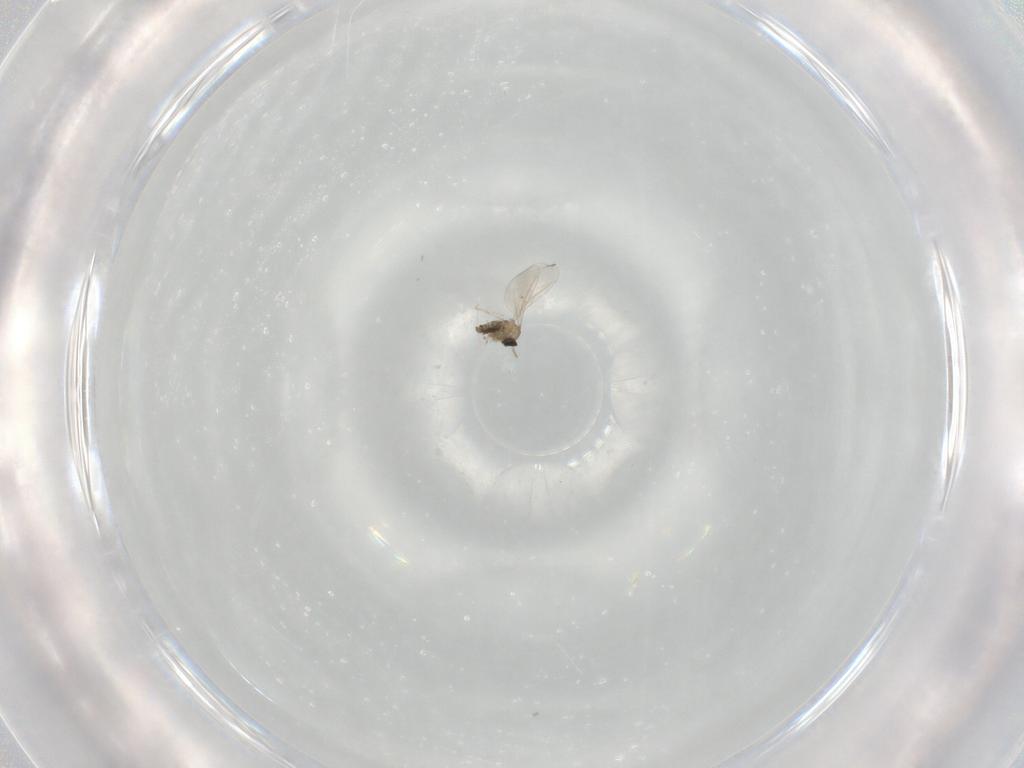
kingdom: Animalia
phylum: Arthropoda
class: Insecta
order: Diptera
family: Cecidomyiidae
